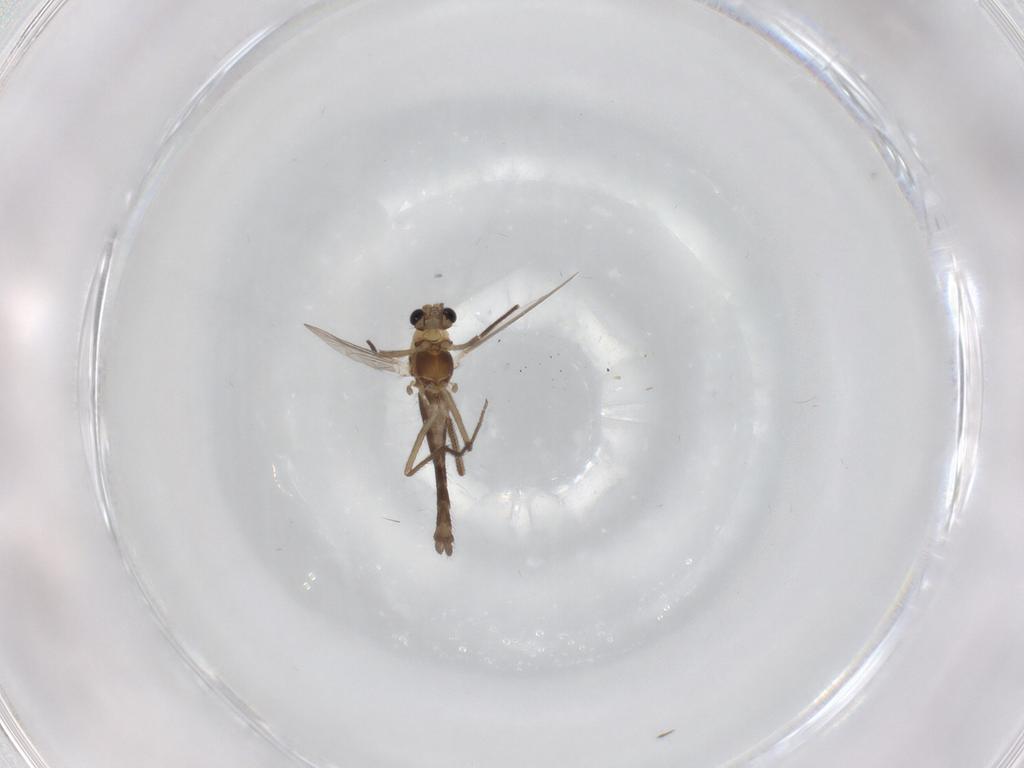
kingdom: Animalia
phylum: Arthropoda
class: Insecta
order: Diptera
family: Chironomidae
